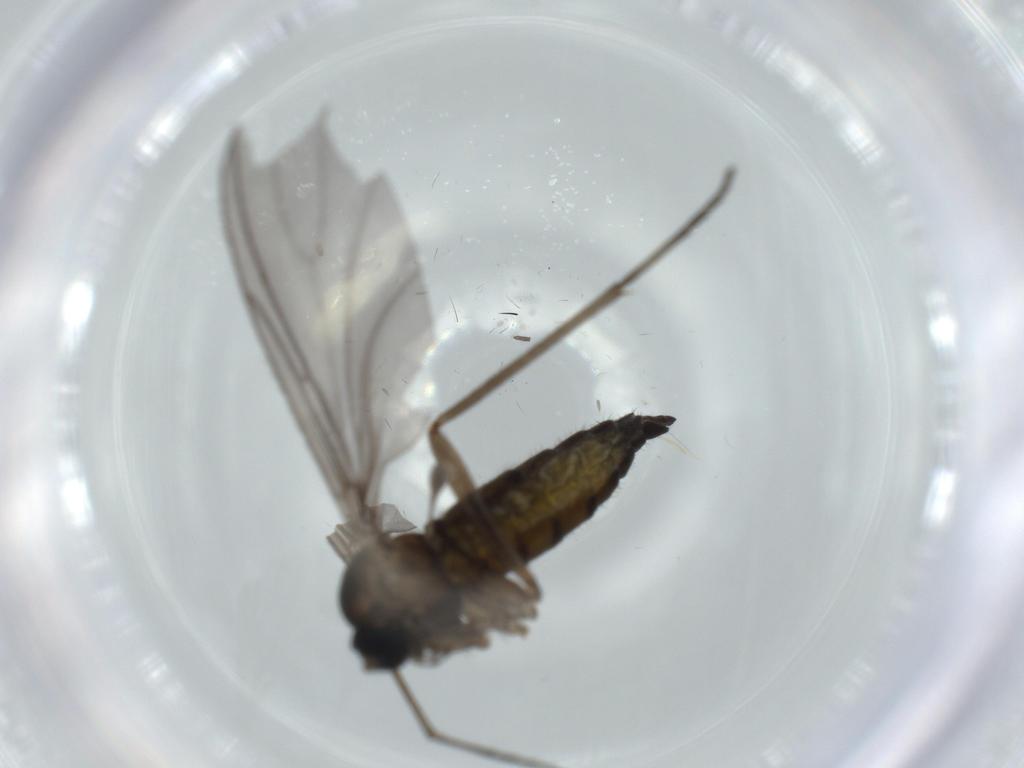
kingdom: Animalia
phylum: Arthropoda
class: Insecta
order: Diptera
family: Sciaridae
